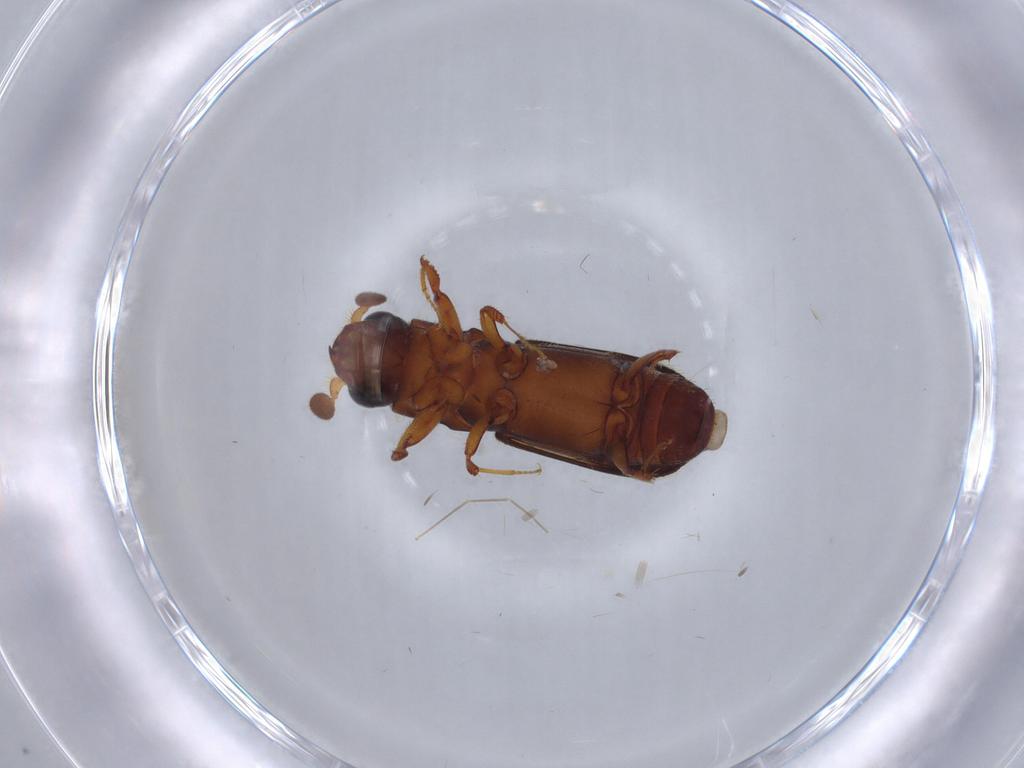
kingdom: Animalia
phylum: Arthropoda
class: Insecta
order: Coleoptera
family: Curculionidae
